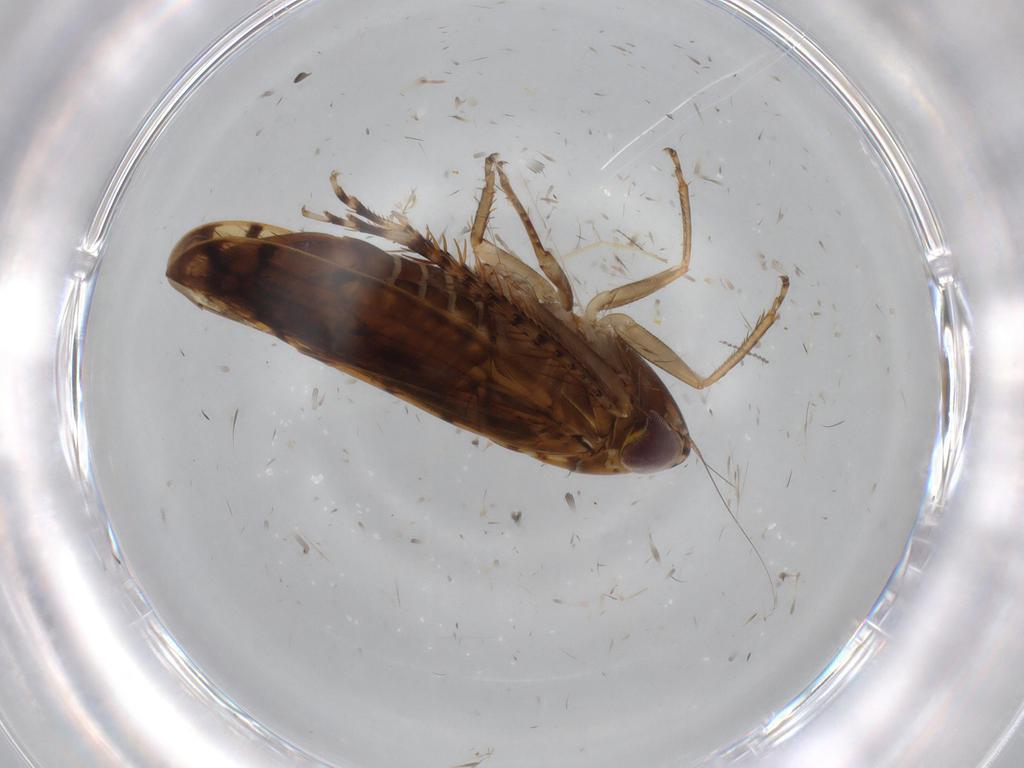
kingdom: Animalia
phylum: Arthropoda
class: Insecta
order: Hemiptera
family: Cicadellidae
